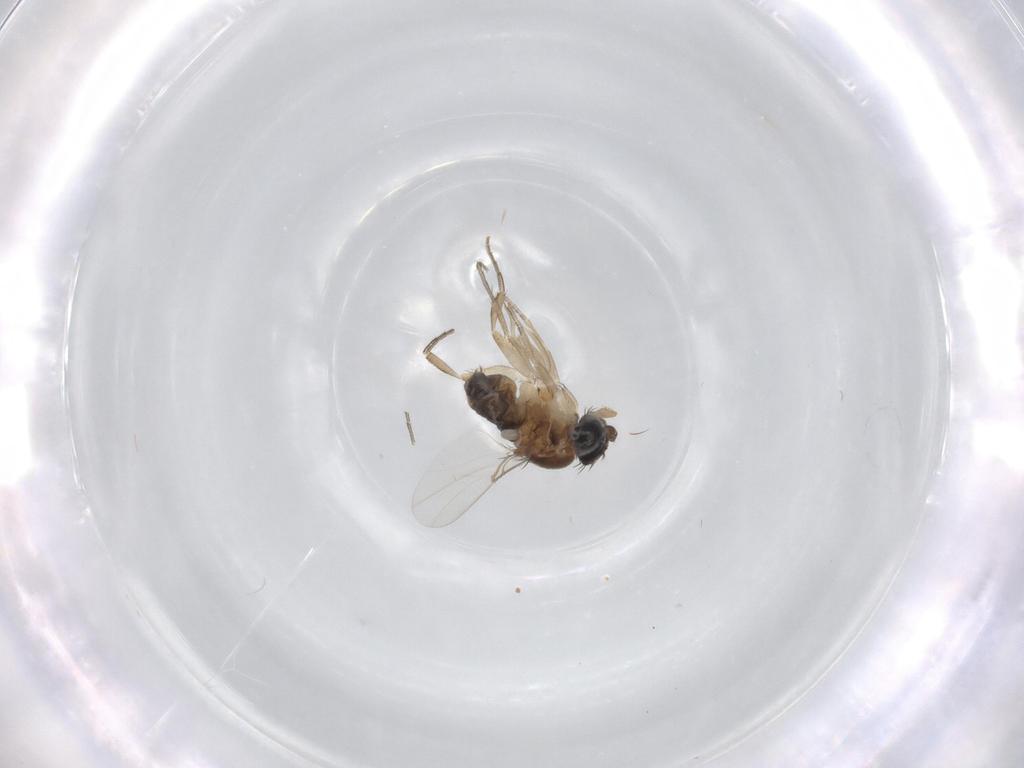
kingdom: Animalia
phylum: Arthropoda
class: Insecta
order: Diptera
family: Phoridae
